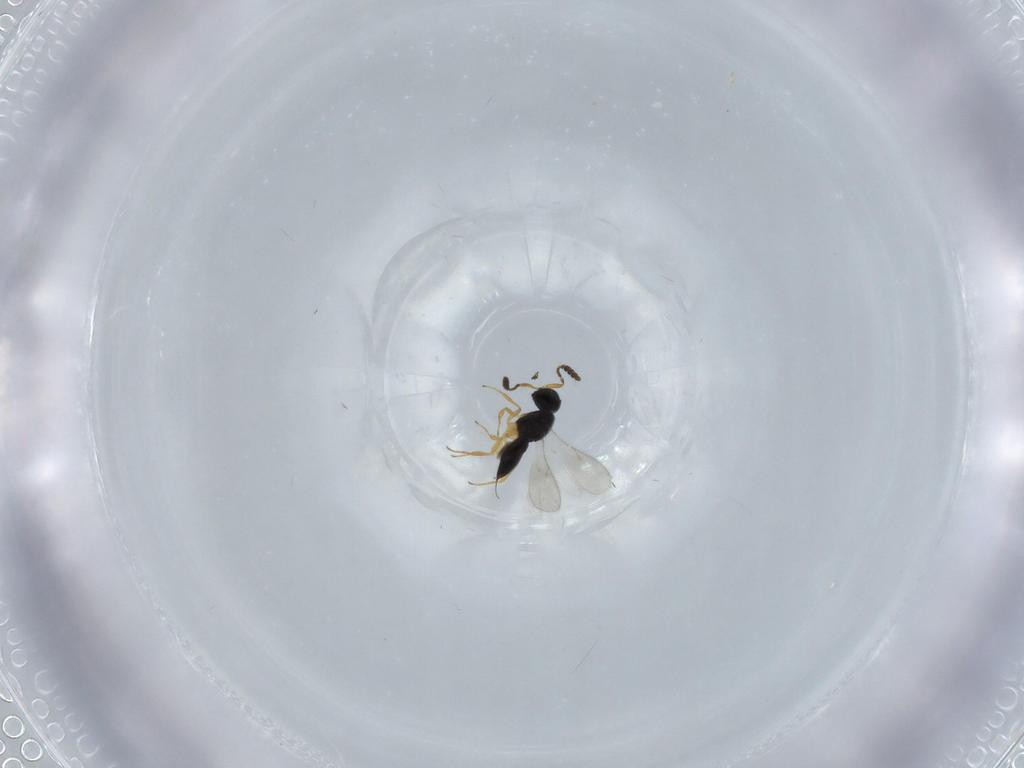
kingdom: Animalia
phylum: Arthropoda
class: Insecta
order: Hymenoptera
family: Scelionidae
